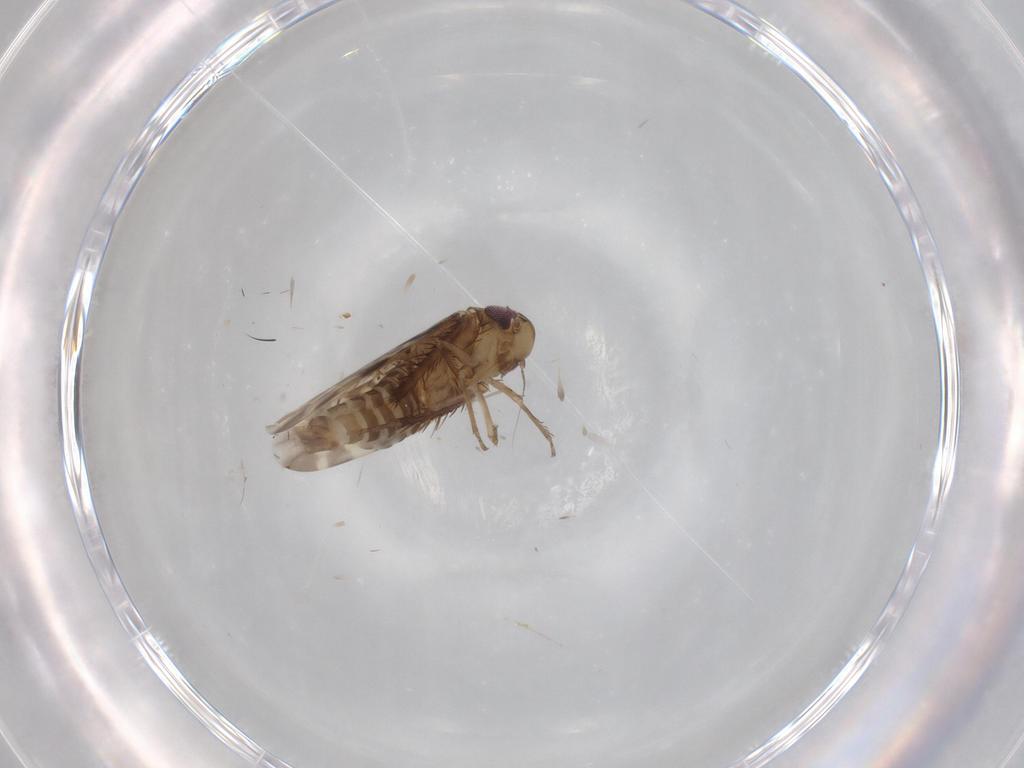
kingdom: Animalia
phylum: Arthropoda
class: Insecta
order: Hemiptera
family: Cicadellidae
